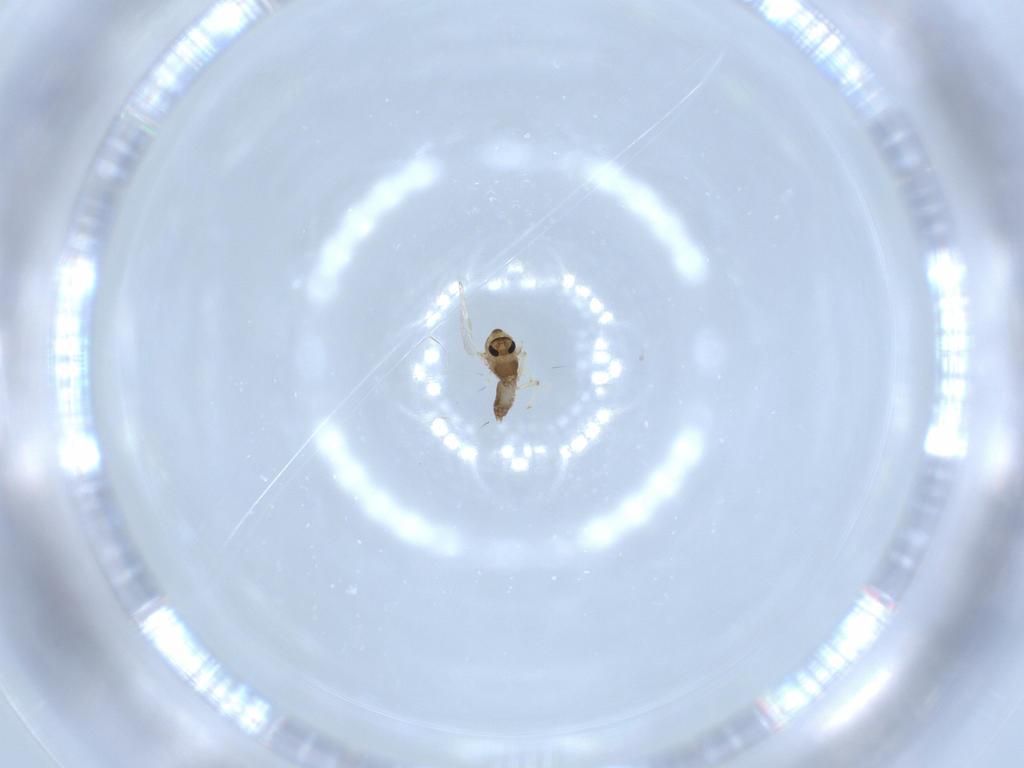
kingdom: Animalia
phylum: Arthropoda
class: Insecta
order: Diptera
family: Chironomidae
